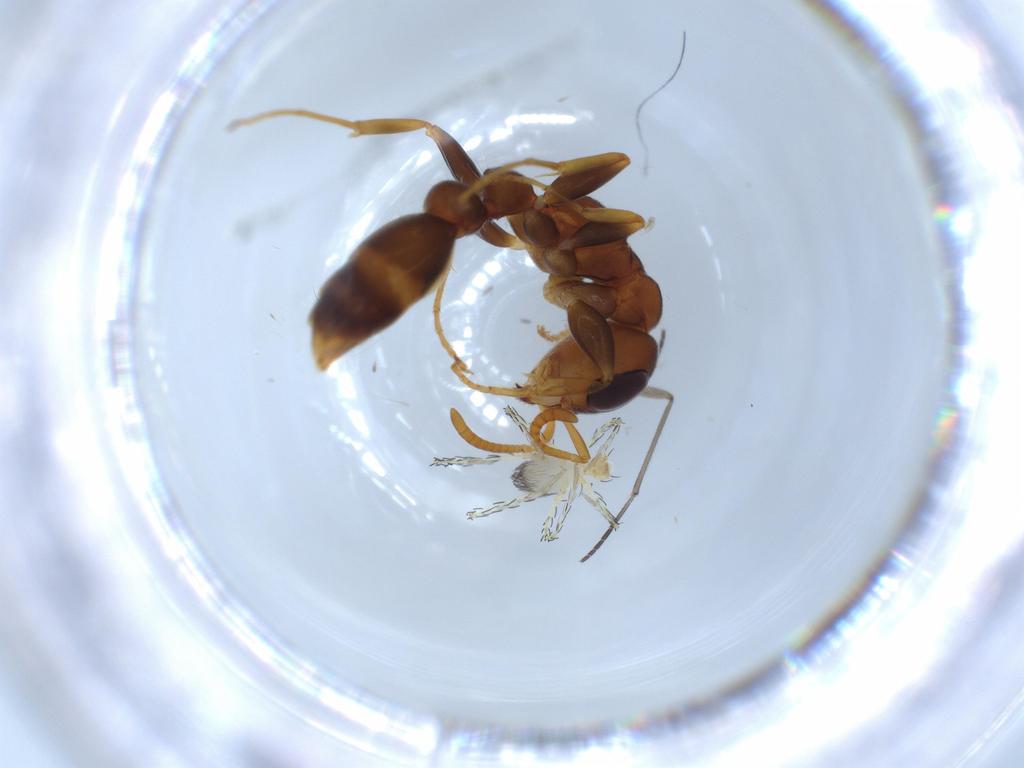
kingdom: Animalia
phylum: Arthropoda
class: Insecta
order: Hymenoptera
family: Formicidae
